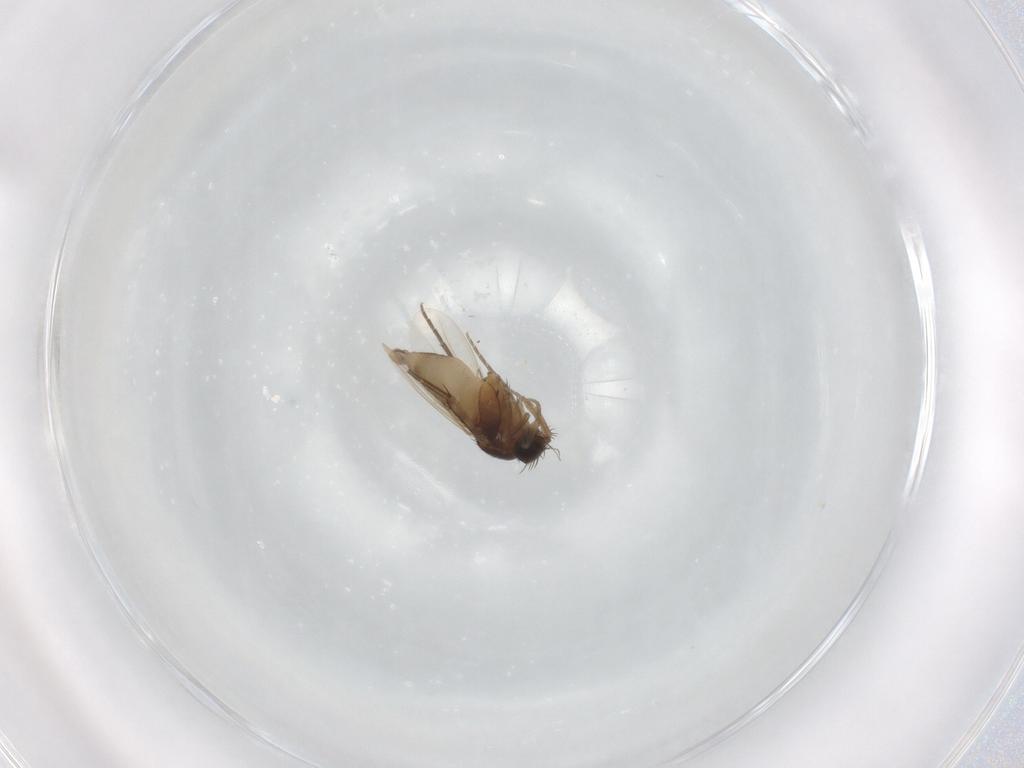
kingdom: Animalia
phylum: Arthropoda
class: Insecta
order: Diptera
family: Phoridae
